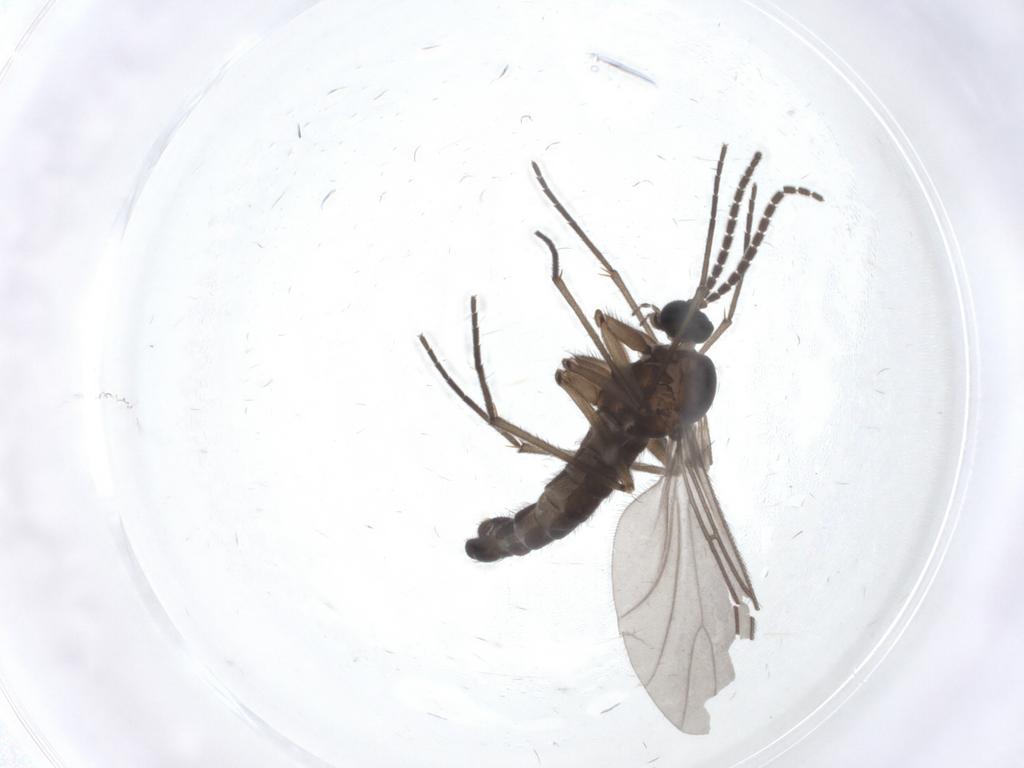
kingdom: Animalia
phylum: Arthropoda
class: Insecta
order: Diptera
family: Sciaridae
